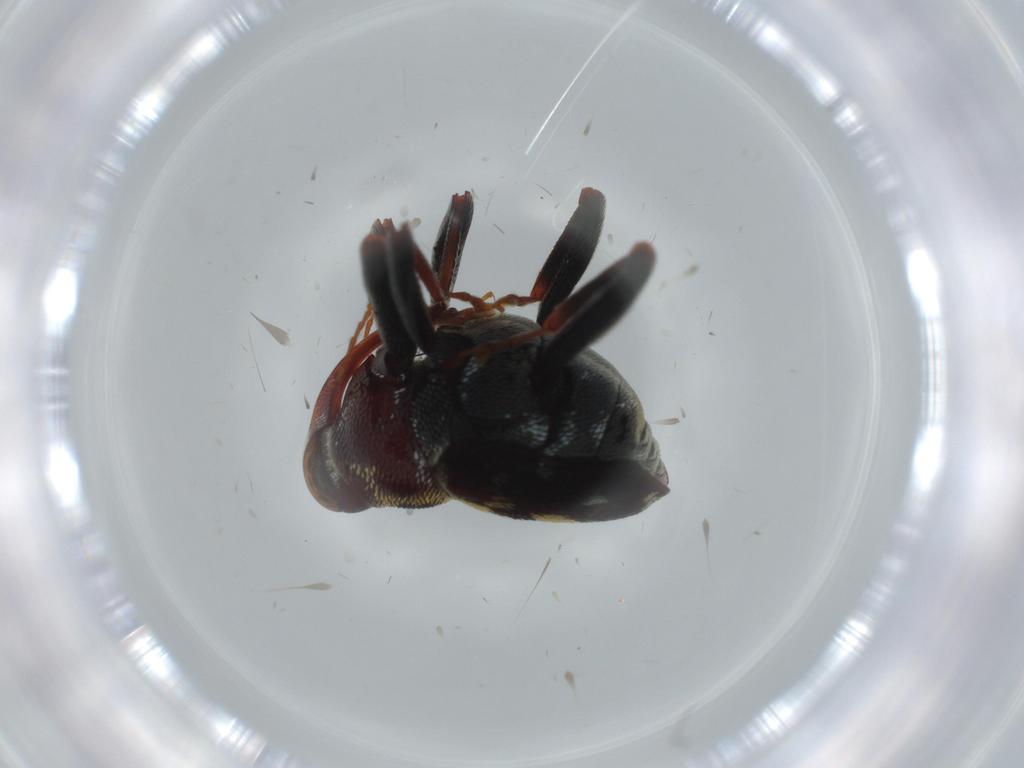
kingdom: Animalia
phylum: Arthropoda
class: Insecta
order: Coleoptera
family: Curculionidae
